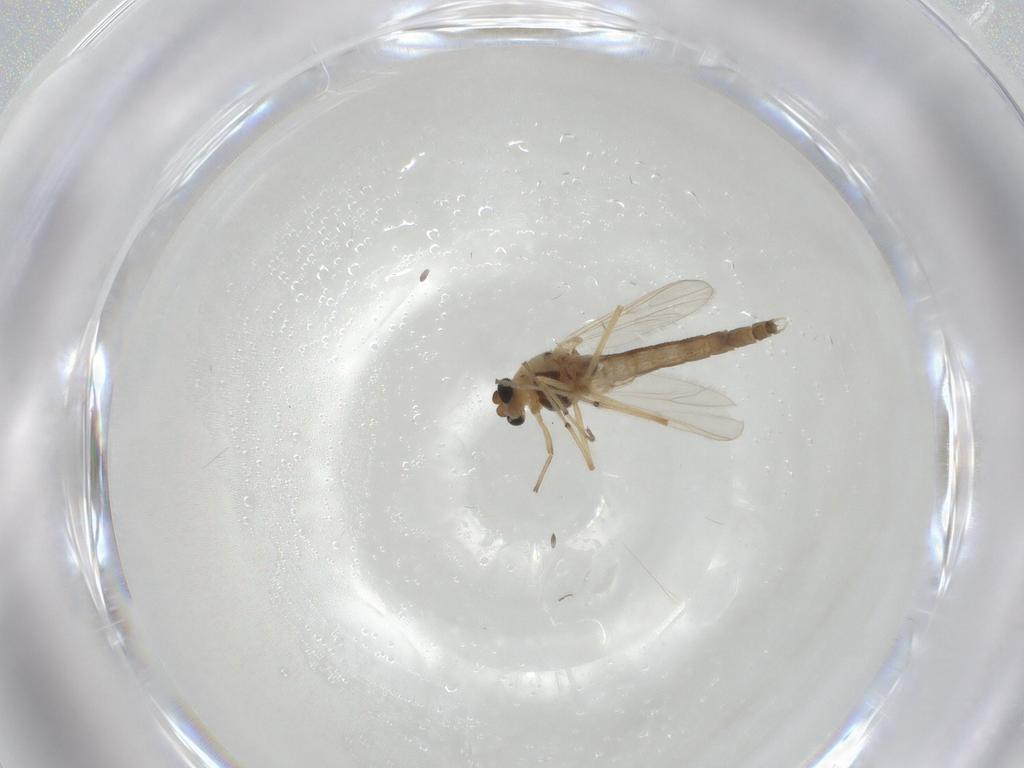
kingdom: Animalia
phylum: Arthropoda
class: Insecta
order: Diptera
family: Chironomidae
